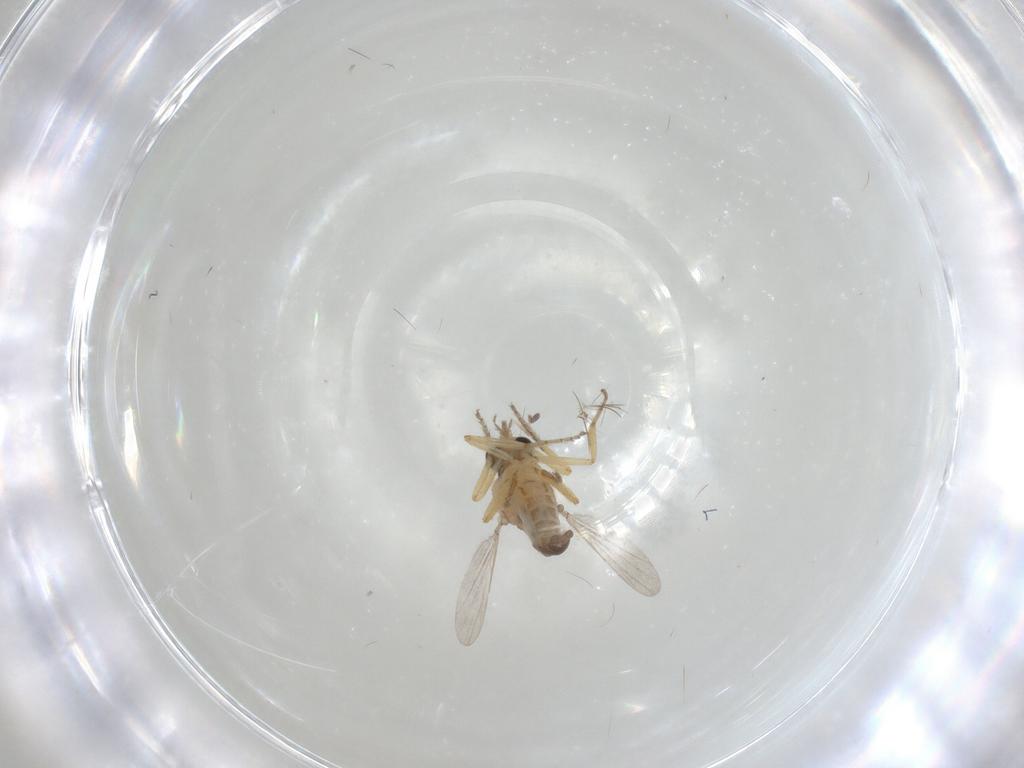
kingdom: Animalia
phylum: Arthropoda
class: Insecta
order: Diptera
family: Ceratopogonidae
